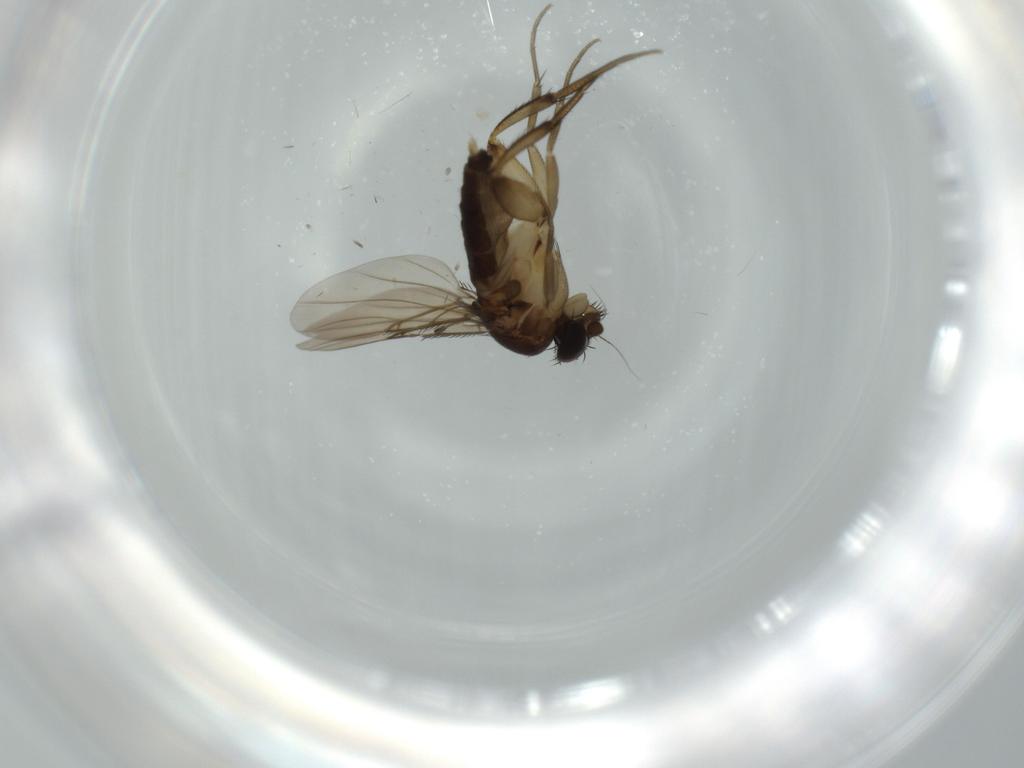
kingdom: Animalia
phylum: Arthropoda
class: Insecta
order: Diptera
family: Phoridae
